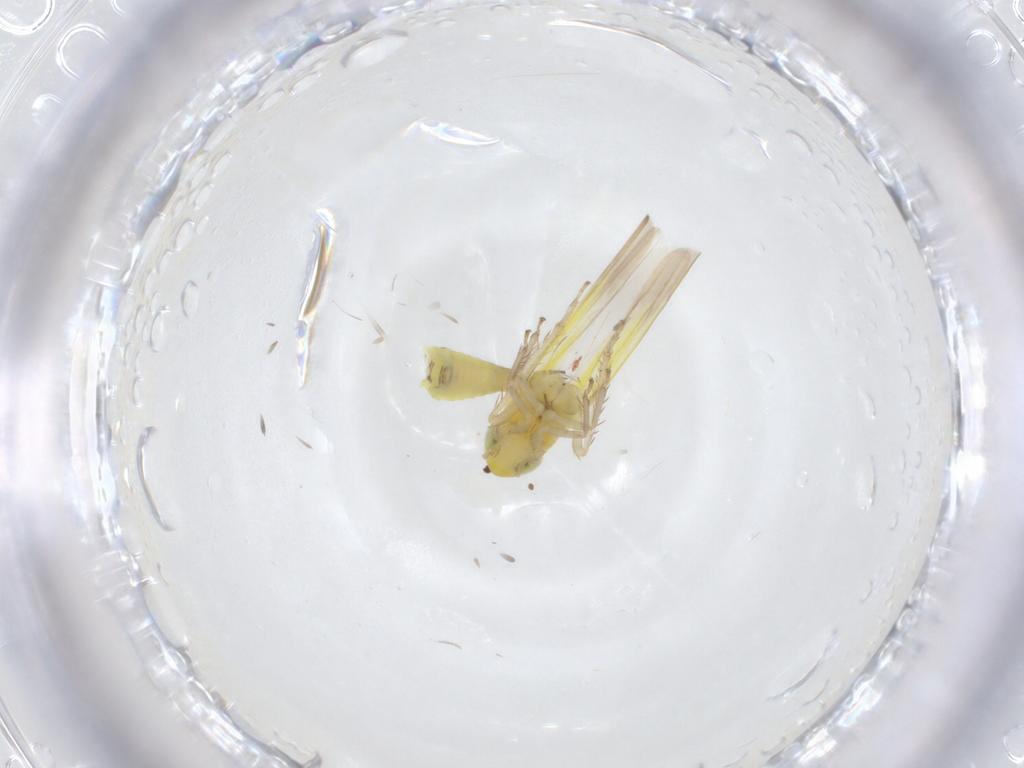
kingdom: Animalia
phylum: Arthropoda
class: Insecta
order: Hemiptera
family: Cicadellidae
